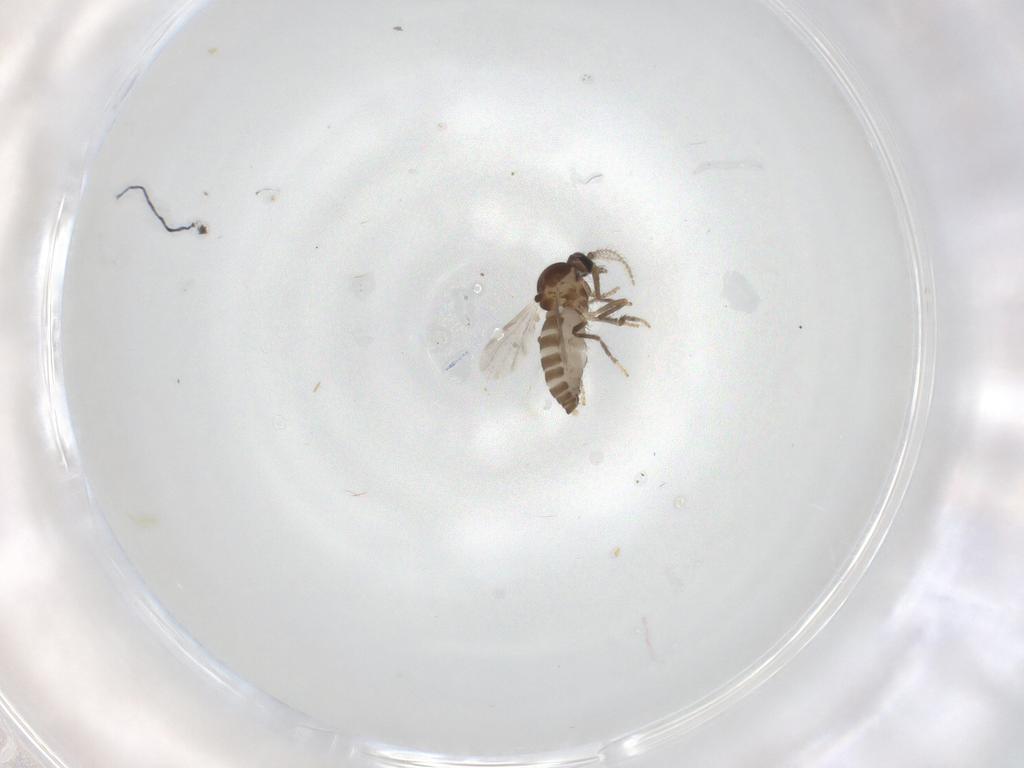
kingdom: Animalia
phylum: Arthropoda
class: Insecta
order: Diptera
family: Ceratopogonidae
